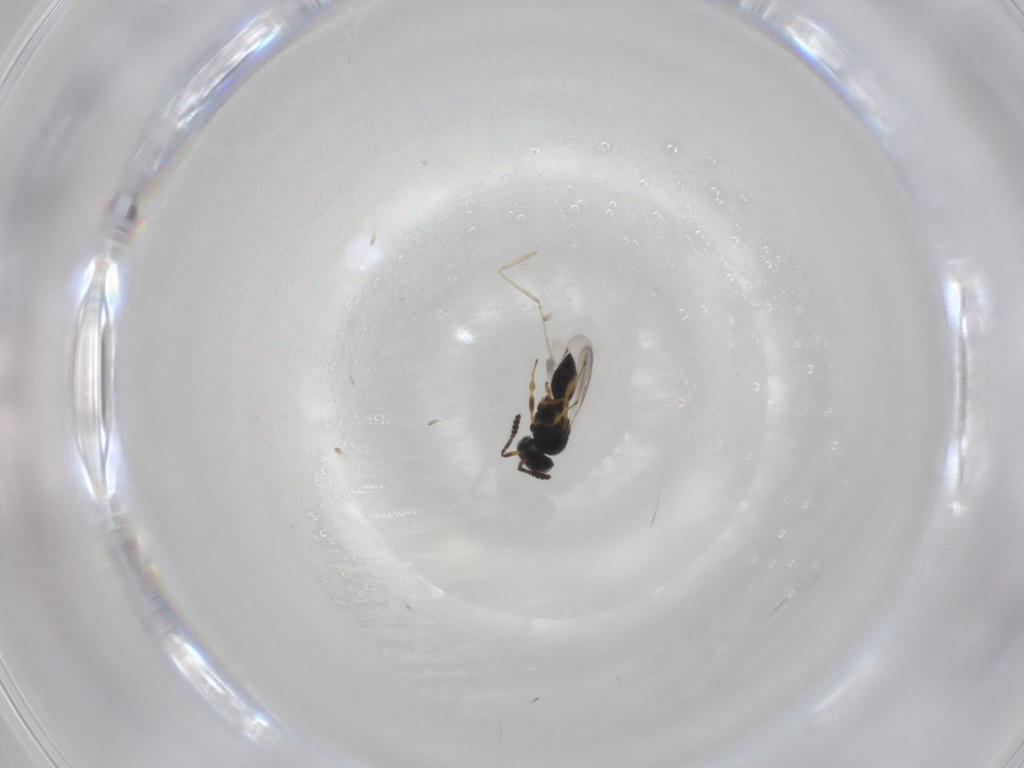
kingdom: Animalia
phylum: Arthropoda
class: Insecta
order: Hymenoptera
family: Scelionidae
